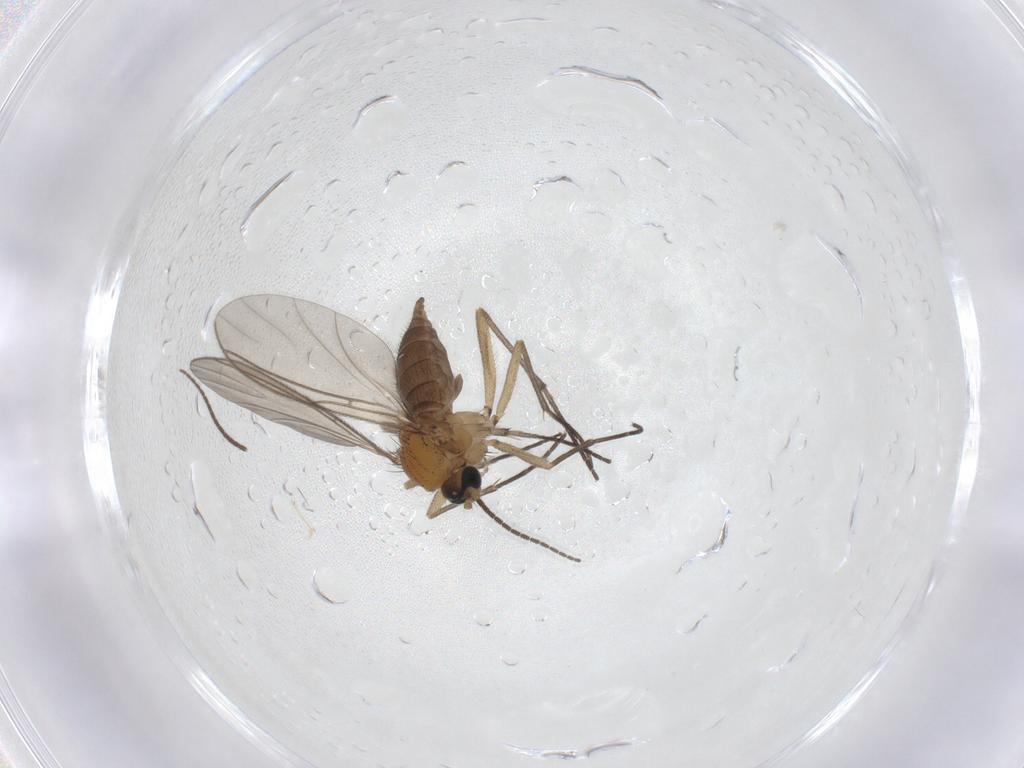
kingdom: Animalia
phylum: Arthropoda
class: Insecta
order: Diptera
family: Sciaridae
